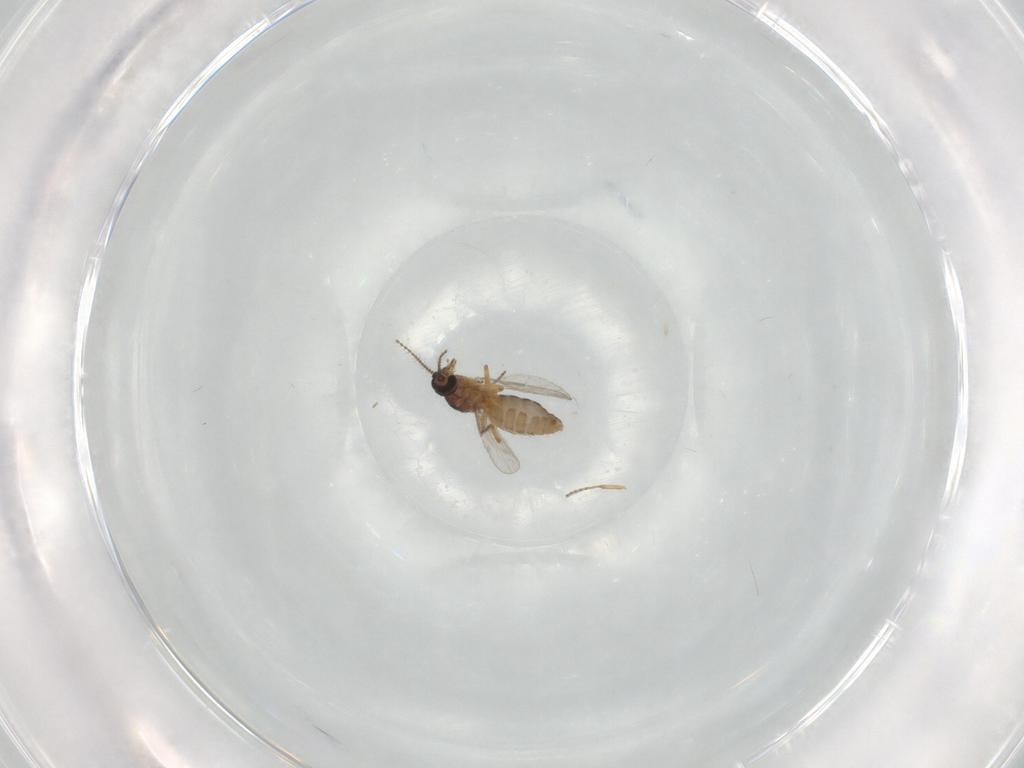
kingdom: Animalia
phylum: Arthropoda
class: Insecta
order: Diptera
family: Ceratopogonidae
